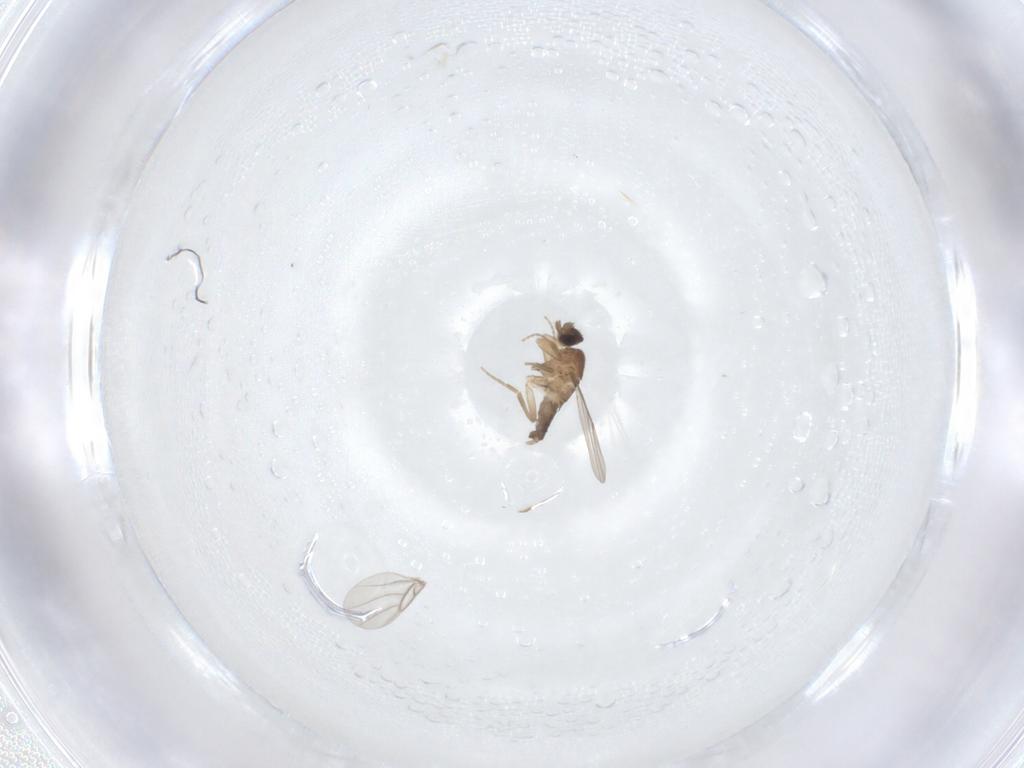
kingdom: Animalia
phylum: Arthropoda
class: Insecta
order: Diptera
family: Phoridae
